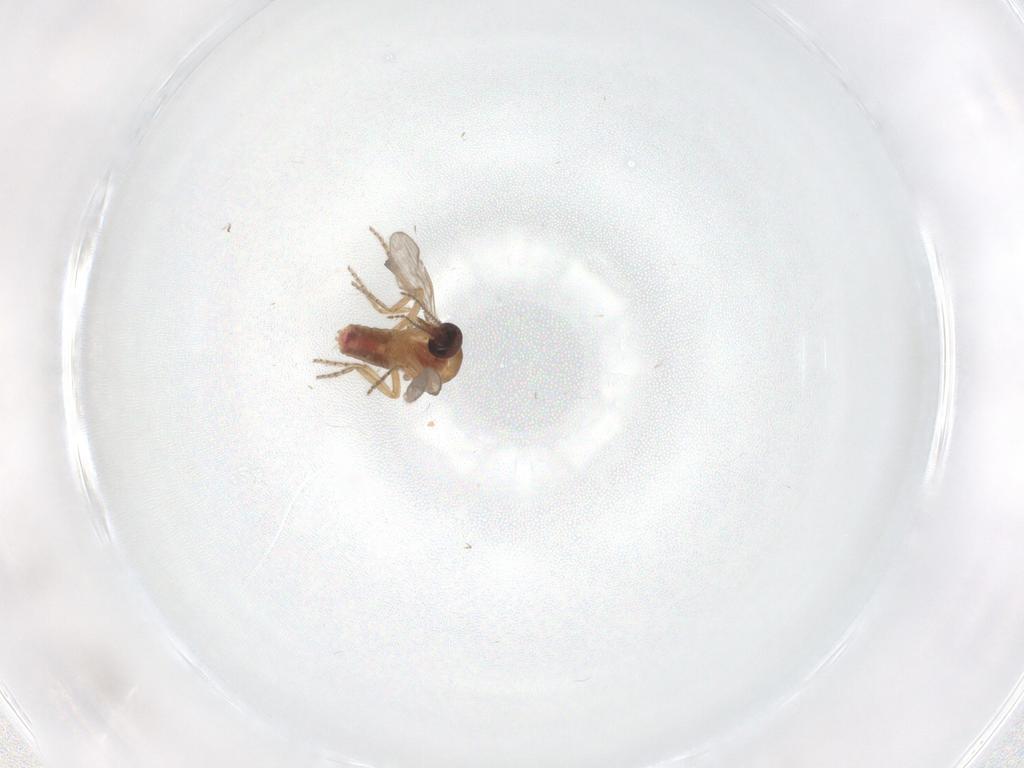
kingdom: Animalia
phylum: Arthropoda
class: Insecta
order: Diptera
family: Ceratopogonidae
